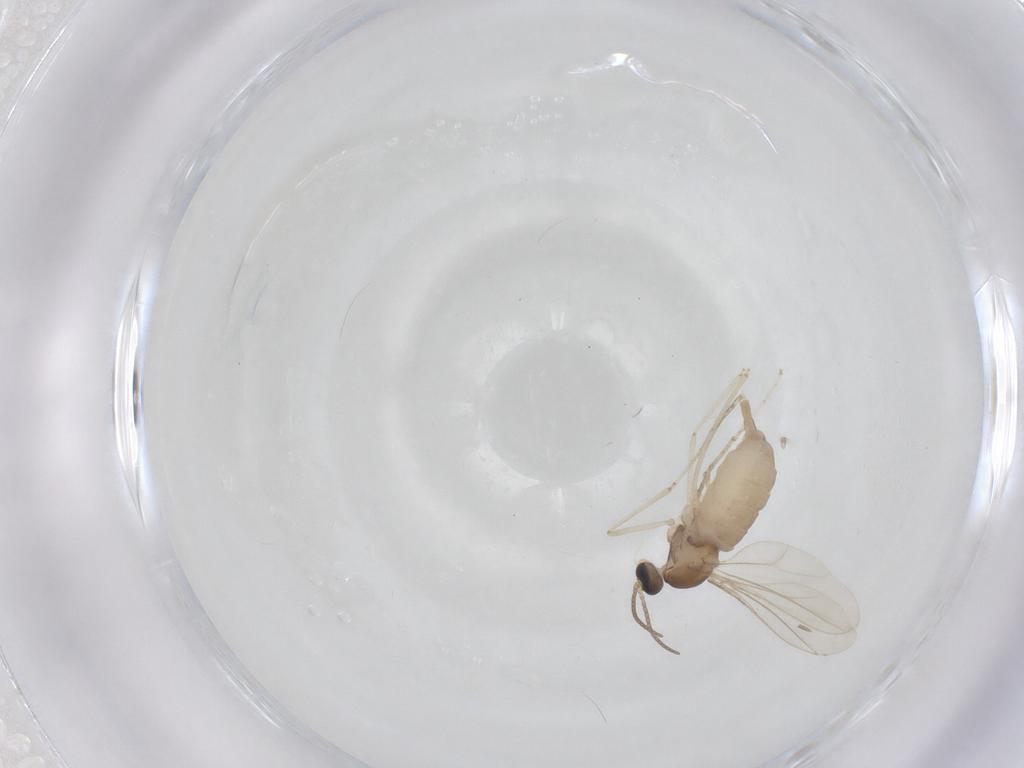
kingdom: Animalia
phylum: Arthropoda
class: Insecta
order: Diptera
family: Cecidomyiidae
